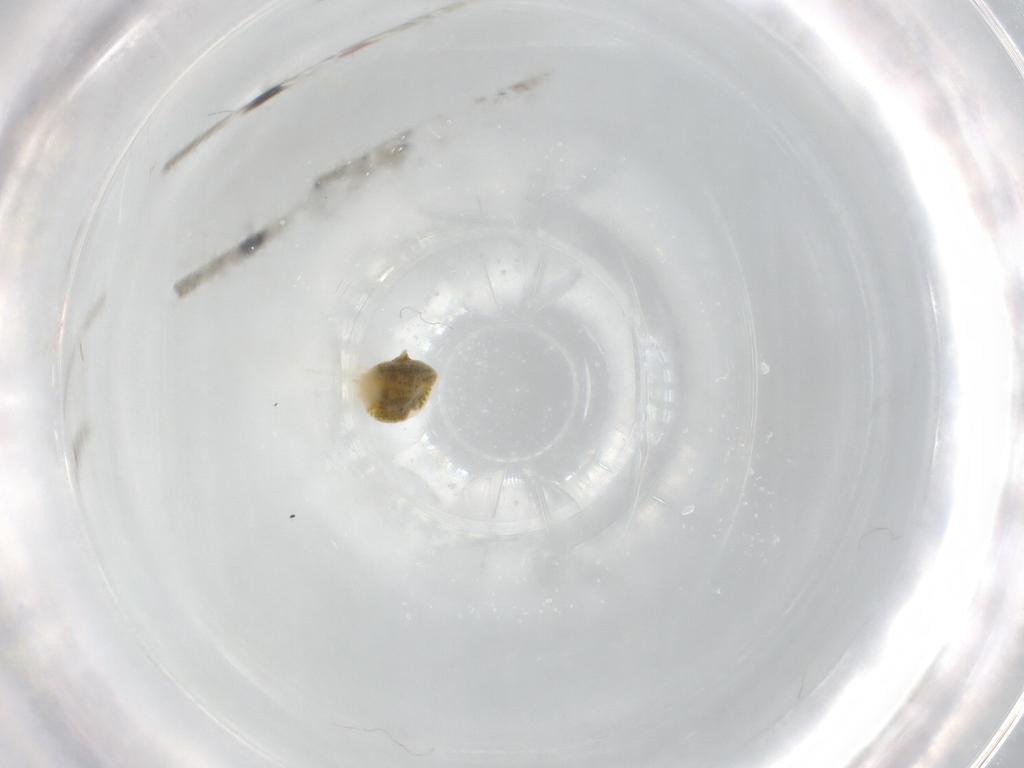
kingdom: Animalia
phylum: Arthropoda
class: Arachnida
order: Trombidiformes
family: Tetranychidae
